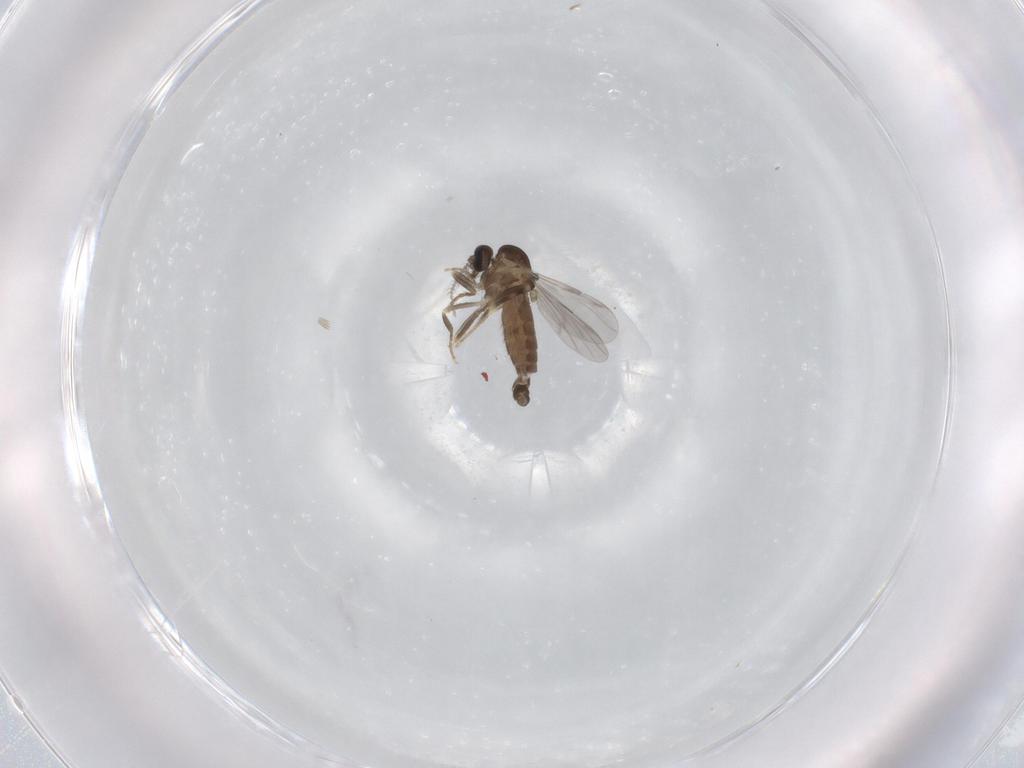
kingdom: Animalia
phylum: Arthropoda
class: Insecta
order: Diptera
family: Ceratopogonidae
